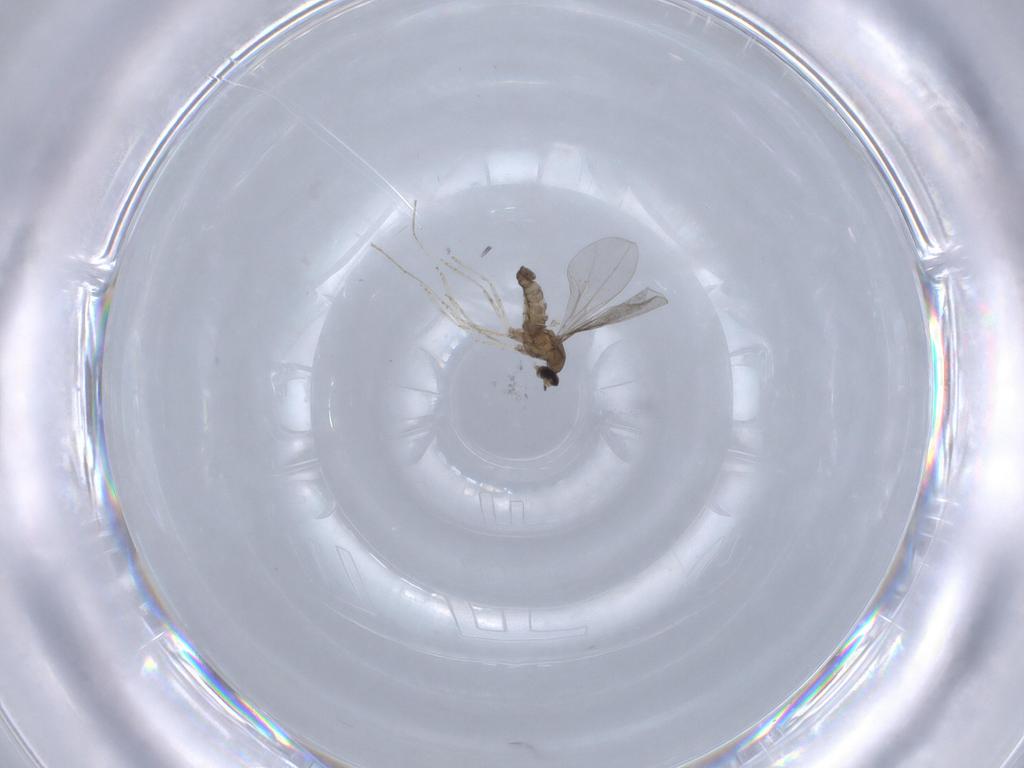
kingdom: Animalia
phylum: Arthropoda
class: Insecta
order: Diptera
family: Cecidomyiidae
